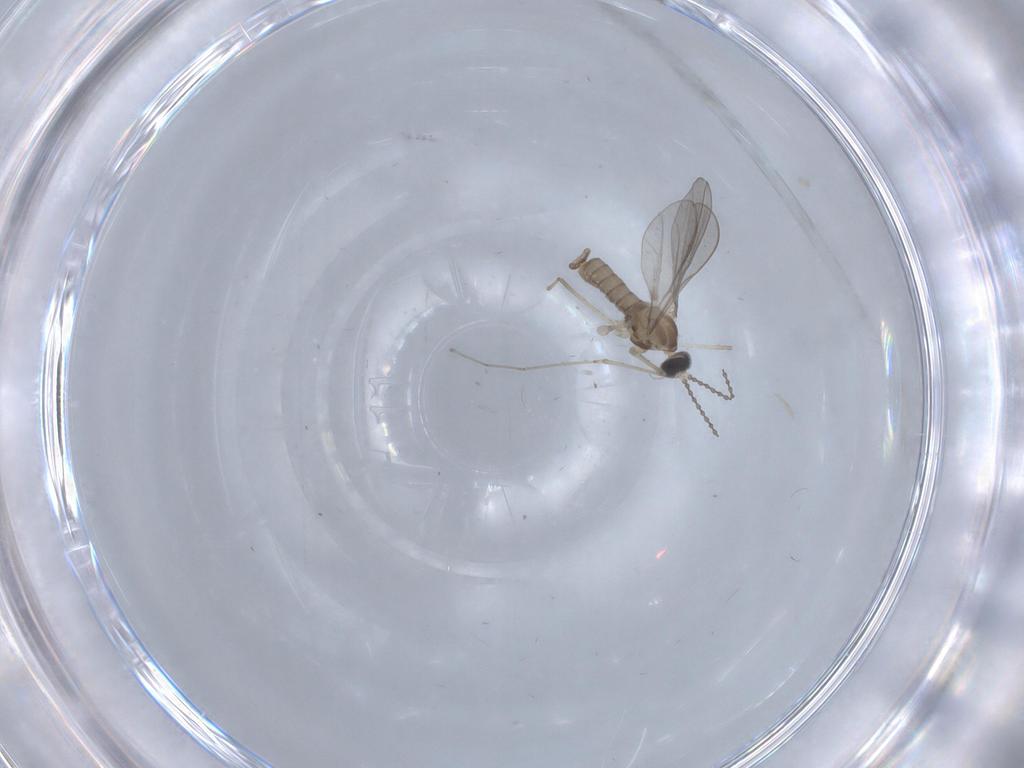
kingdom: Animalia
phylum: Arthropoda
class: Insecta
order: Diptera
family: Cecidomyiidae
